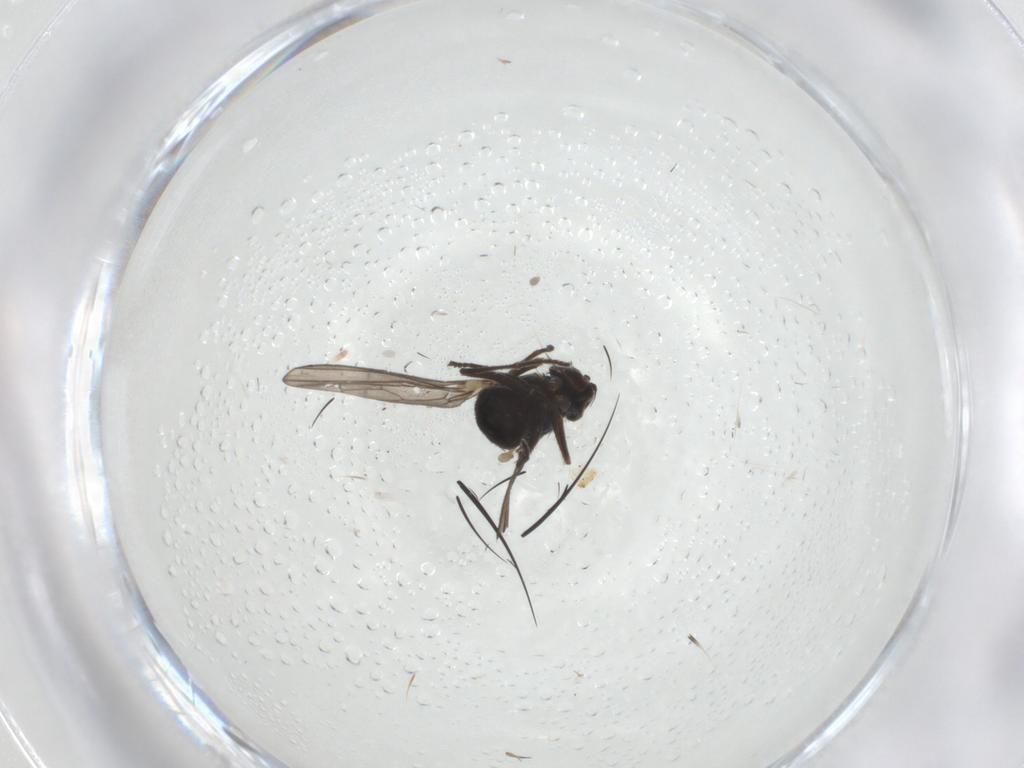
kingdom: Animalia
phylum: Arthropoda
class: Insecta
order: Diptera
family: Dolichopodidae
